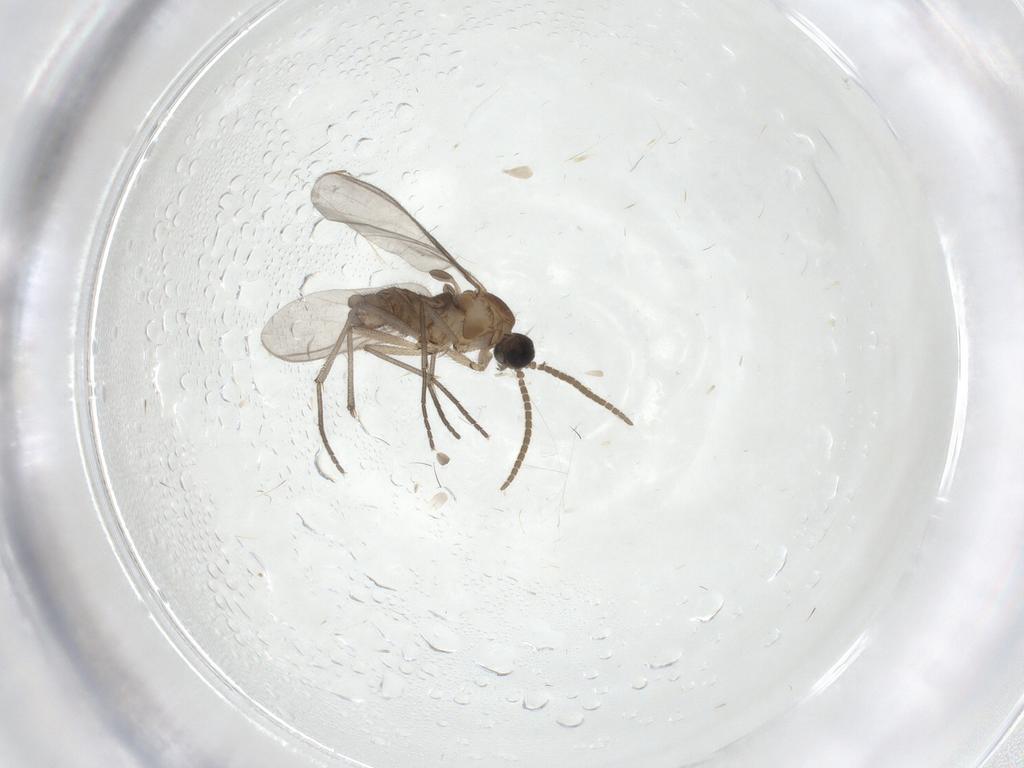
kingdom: Animalia
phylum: Arthropoda
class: Insecta
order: Diptera
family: Cecidomyiidae
